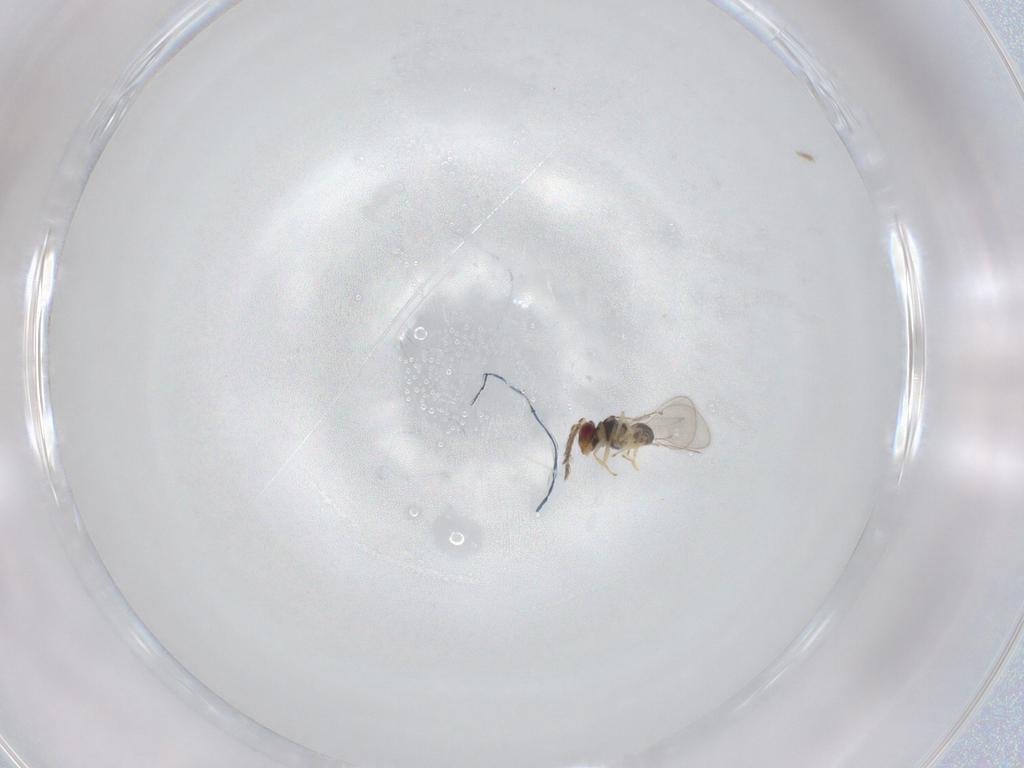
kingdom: Animalia
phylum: Arthropoda
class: Insecta
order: Hymenoptera
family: Eulophidae
